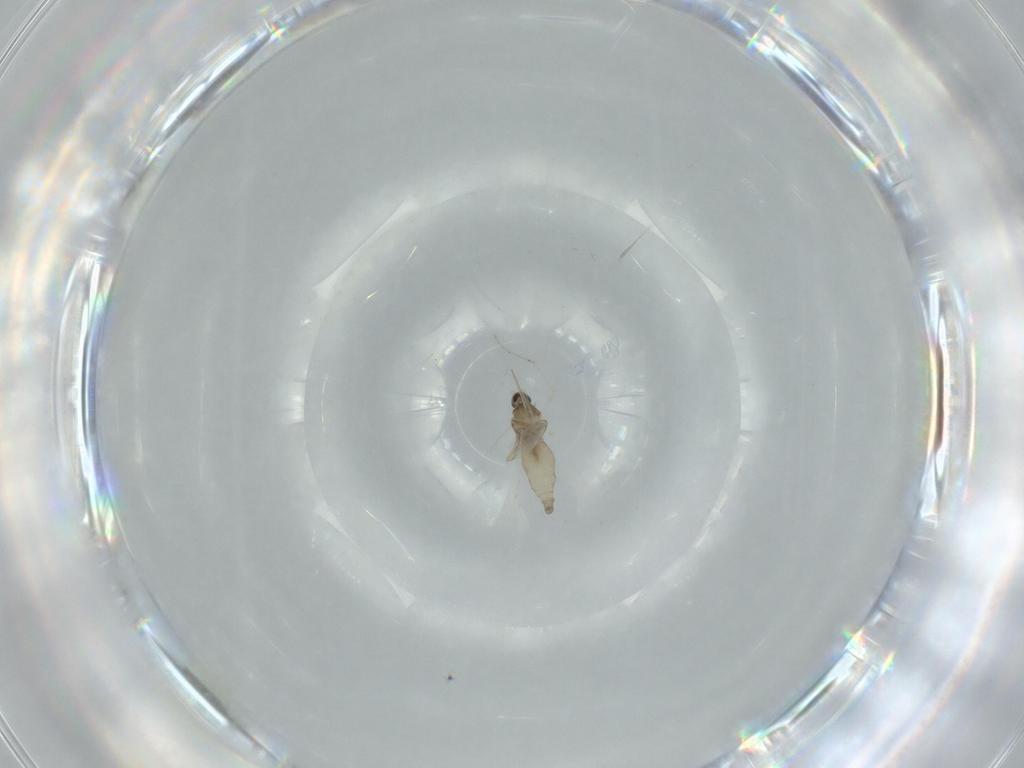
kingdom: Animalia
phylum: Arthropoda
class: Insecta
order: Diptera
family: Cecidomyiidae
